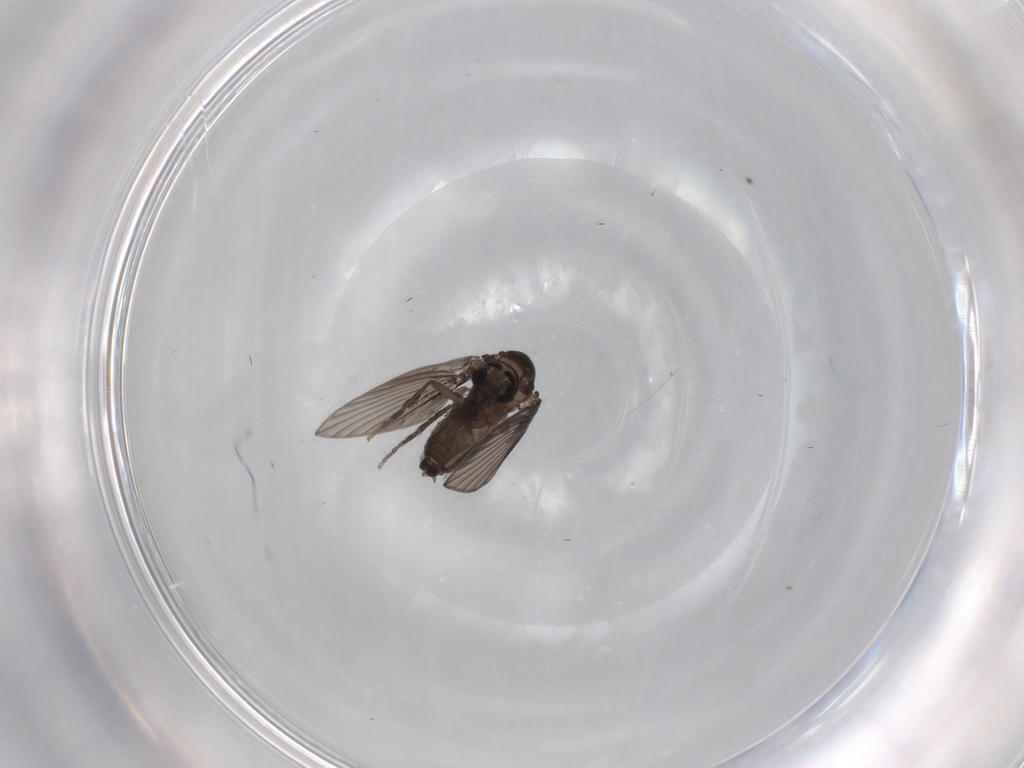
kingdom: Animalia
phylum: Arthropoda
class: Insecta
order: Diptera
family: Psychodidae
